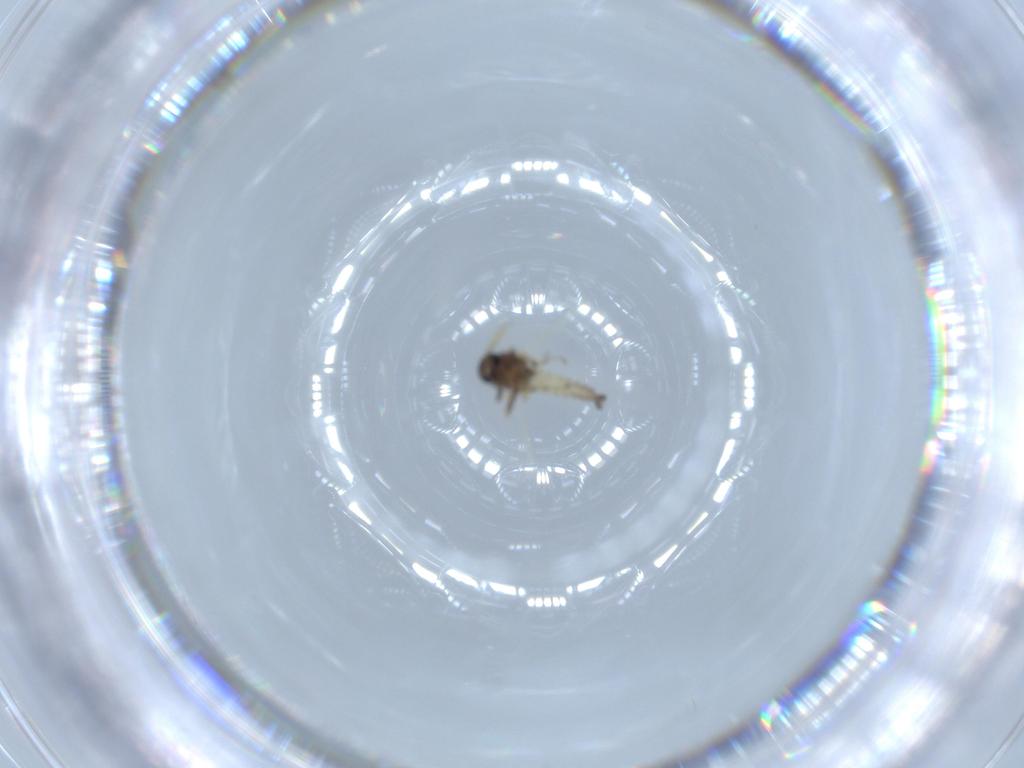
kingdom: Animalia
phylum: Arthropoda
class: Insecta
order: Diptera
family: Ceratopogonidae
